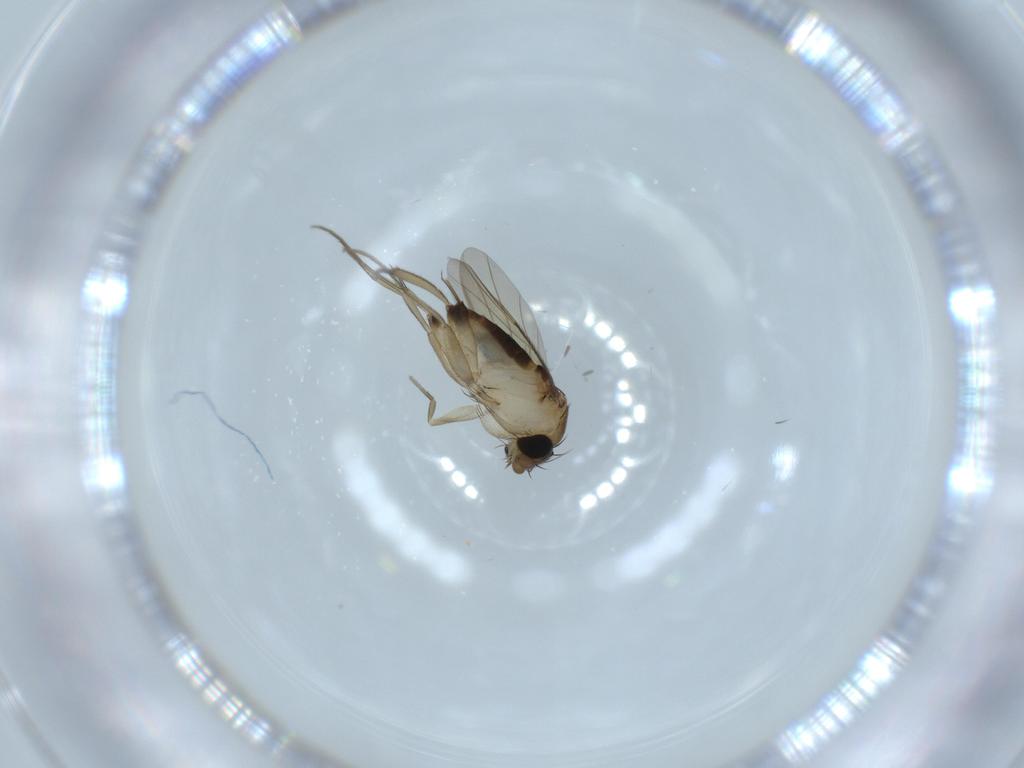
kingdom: Animalia
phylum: Arthropoda
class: Insecta
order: Diptera
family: Phoridae
